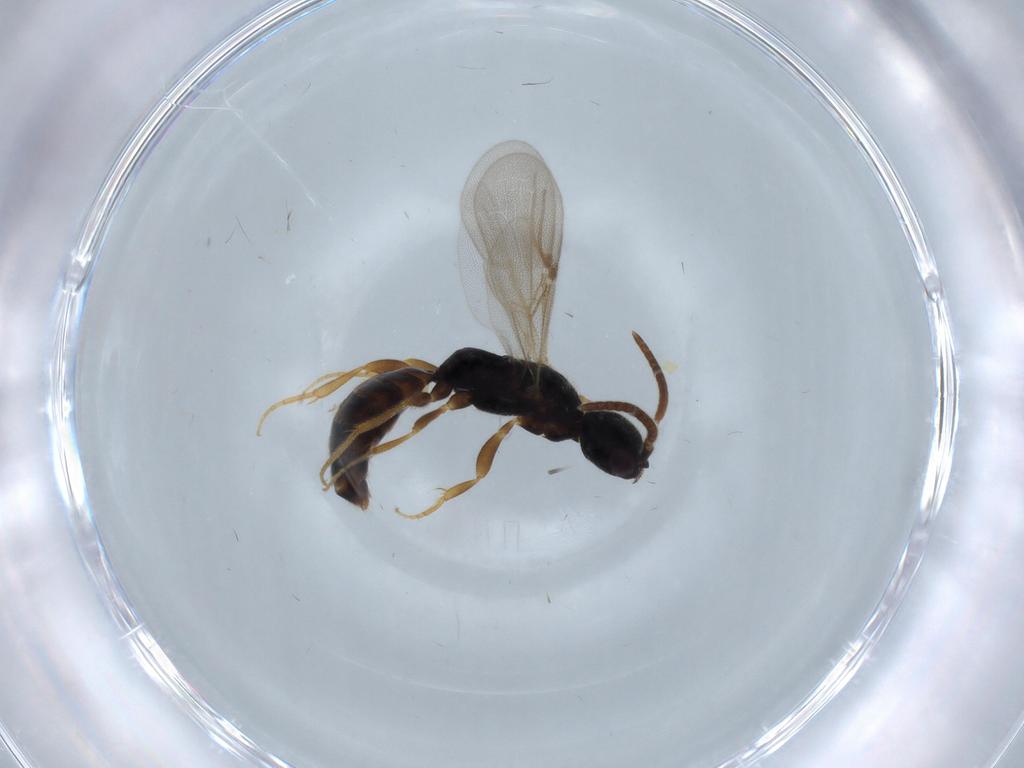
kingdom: Animalia
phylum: Arthropoda
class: Insecta
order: Hymenoptera
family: Bethylidae
